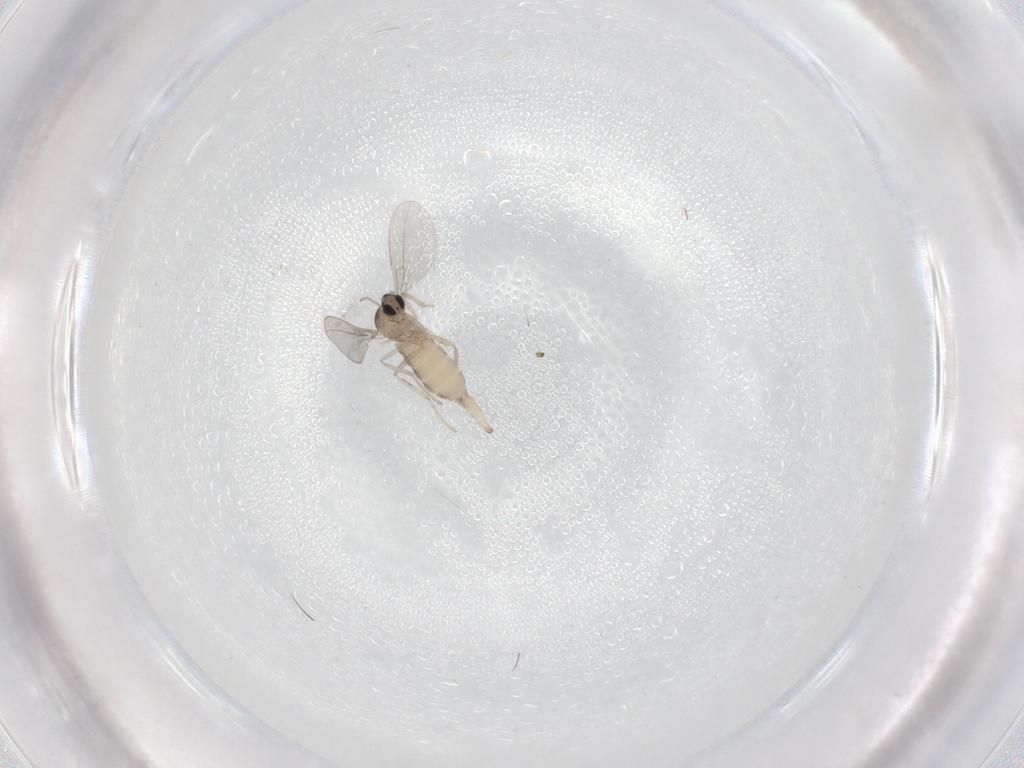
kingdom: Animalia
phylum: Arthropoda
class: Insecta
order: Diptera
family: Cecidomyiidae
